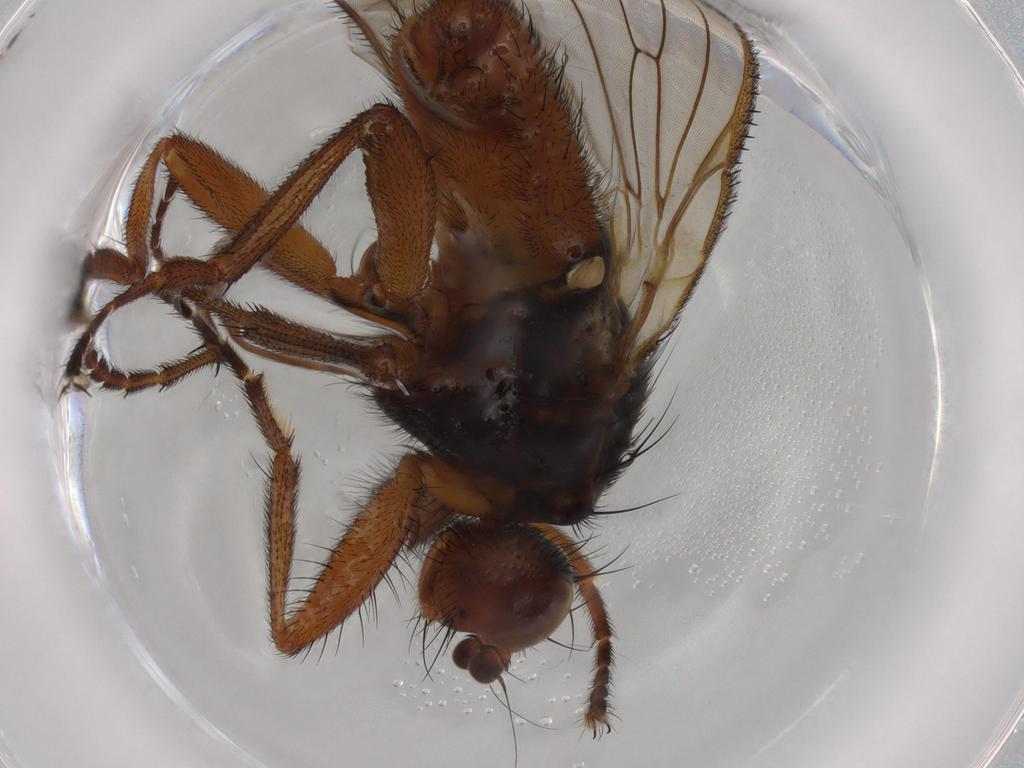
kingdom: Animalia
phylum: Arthropoda
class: Insecta
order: Diptera
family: Heleomyzidae
